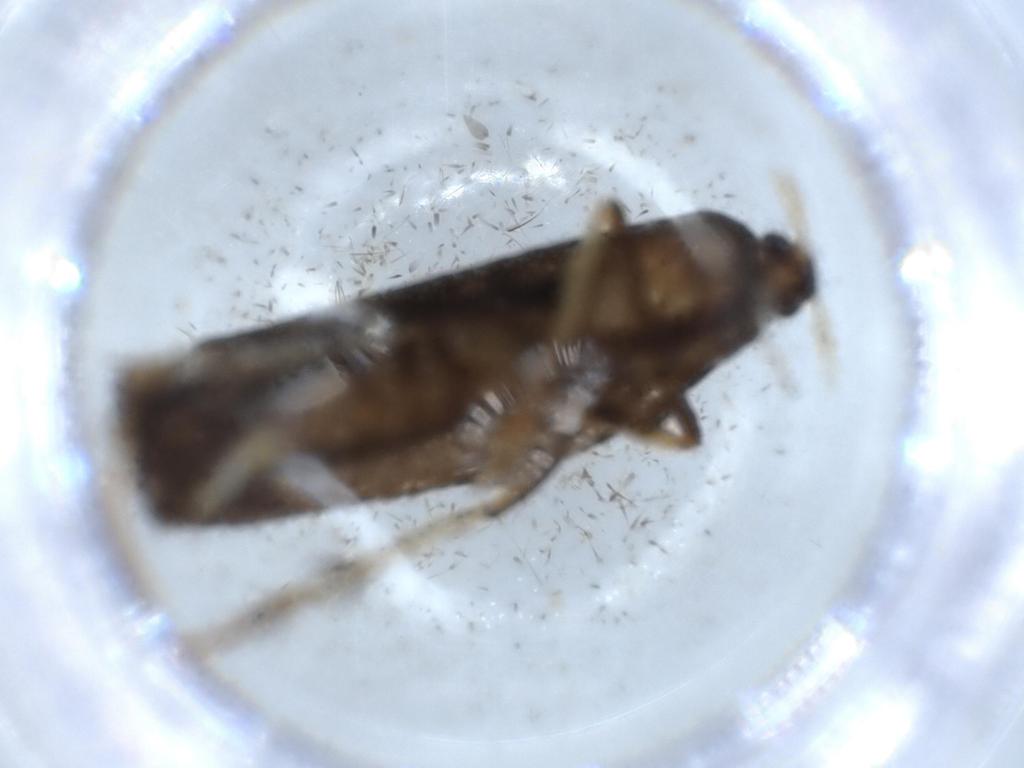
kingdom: Animalia
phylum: Arthropoda
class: Insecta
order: Lepidoptera
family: Lecithoceridae
